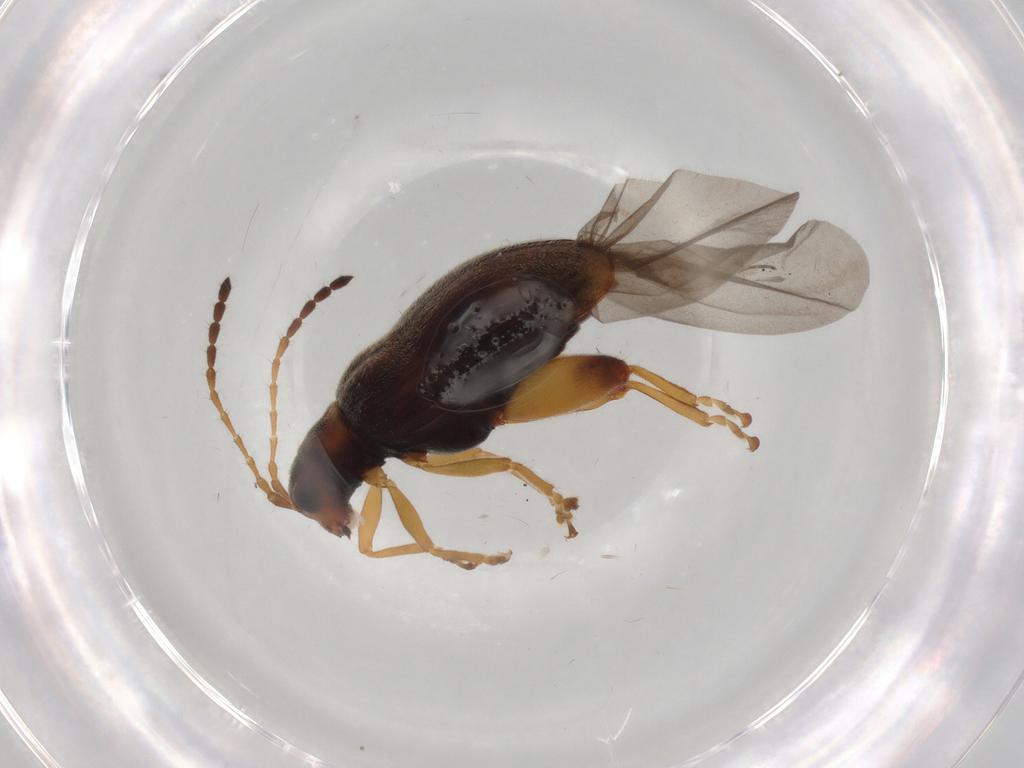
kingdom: Animalia
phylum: Arthropoda
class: Insecta
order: Coleoptera
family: Chrysomelidae
